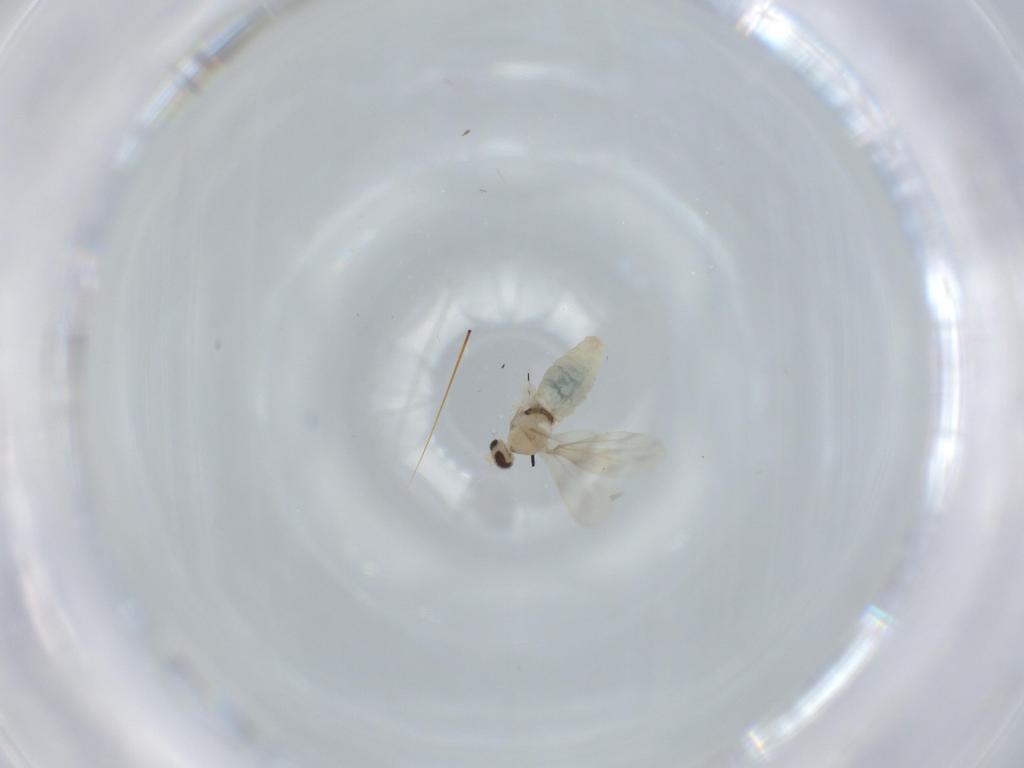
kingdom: Animalia
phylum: Arthropoda
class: Insecta
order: Diptera
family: Cecidomyiidae
